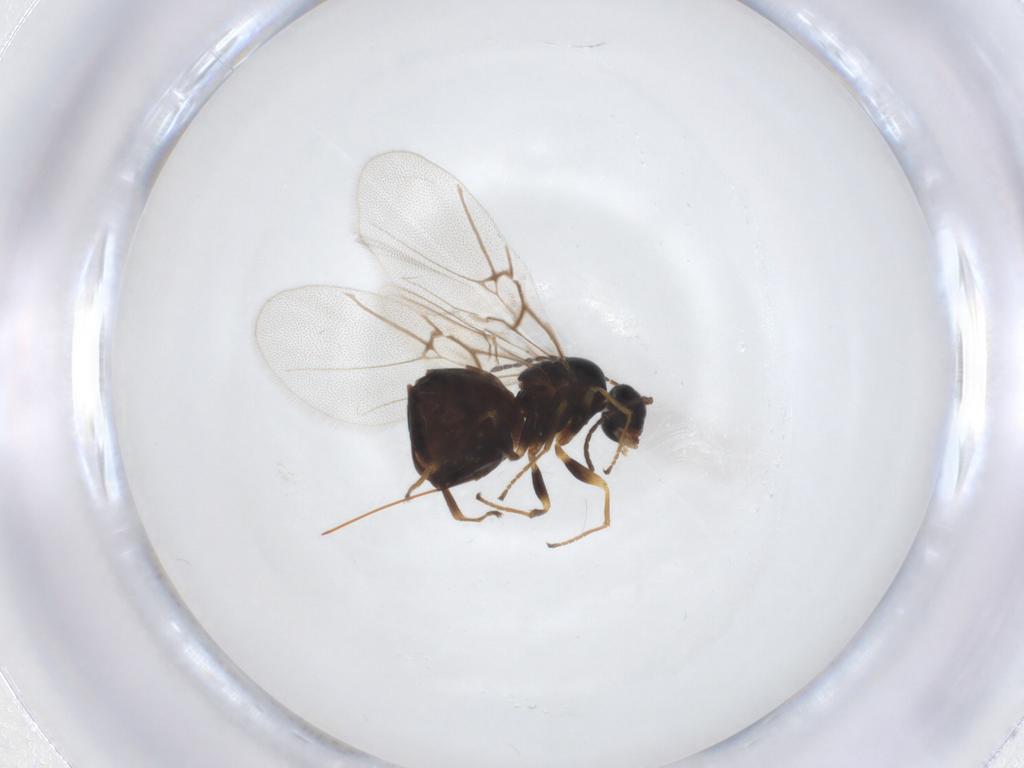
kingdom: Animalia
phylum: Arthropoda
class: Insecta
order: Hymenoptera
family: Cynipidae
